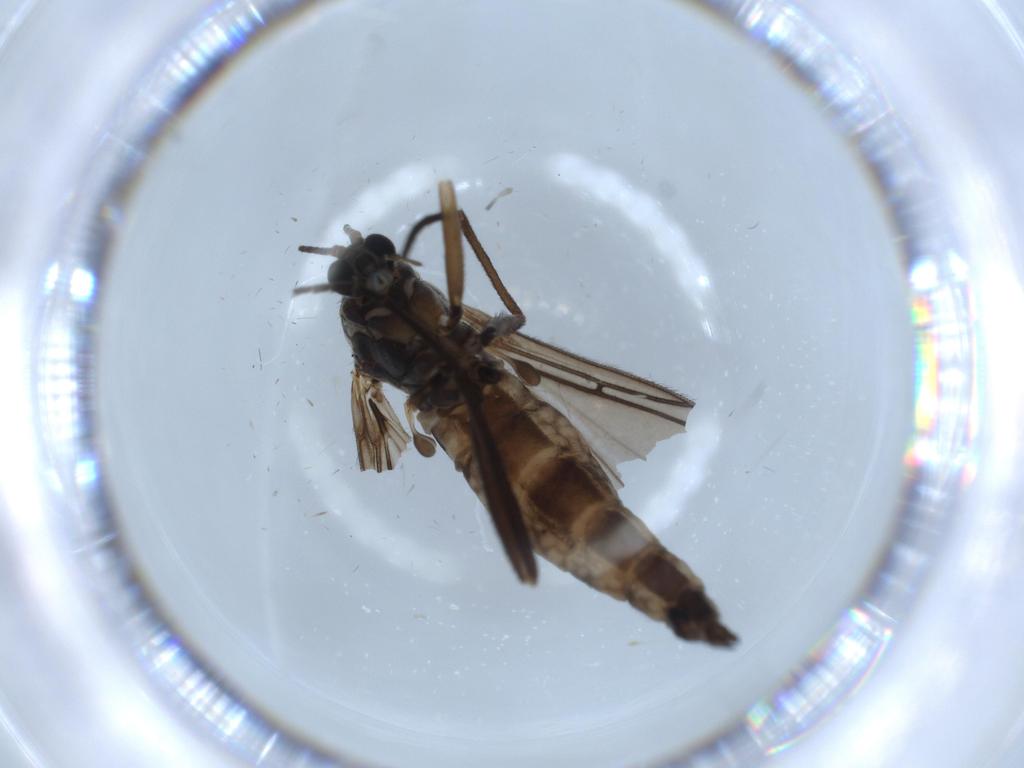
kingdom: Animalia
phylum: Arthropoda
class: Insecta
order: Diptera
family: Sciaridae
